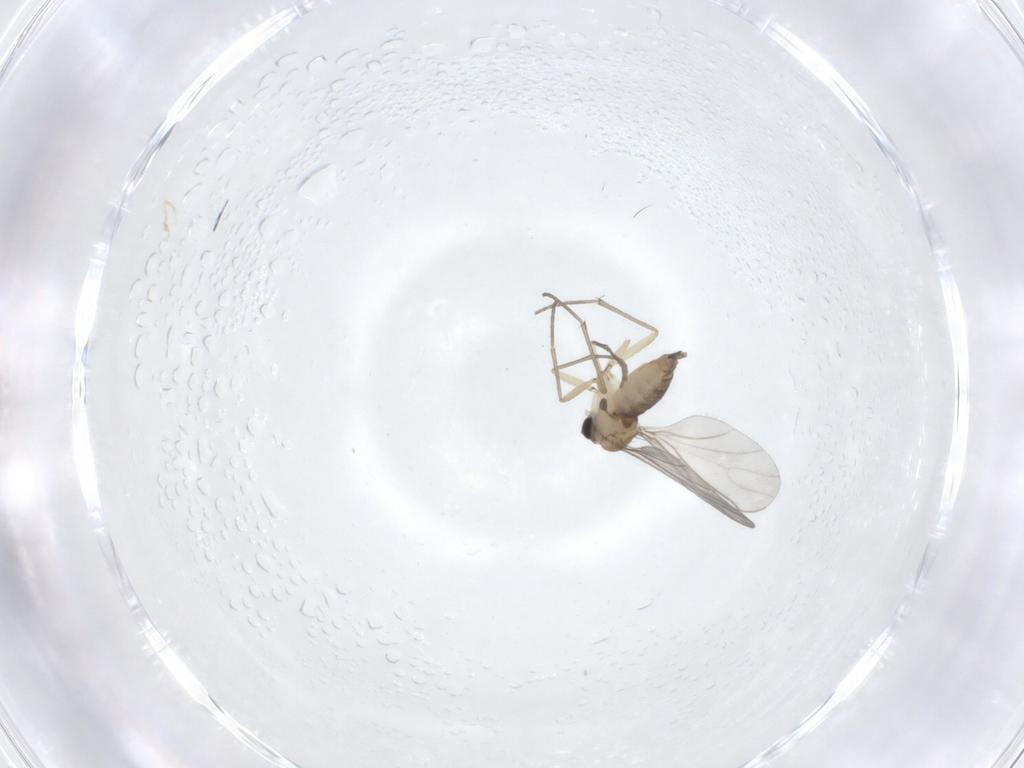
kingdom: Animalia
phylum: Arthropoda
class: Insecta
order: Diptera
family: Sciaridae
